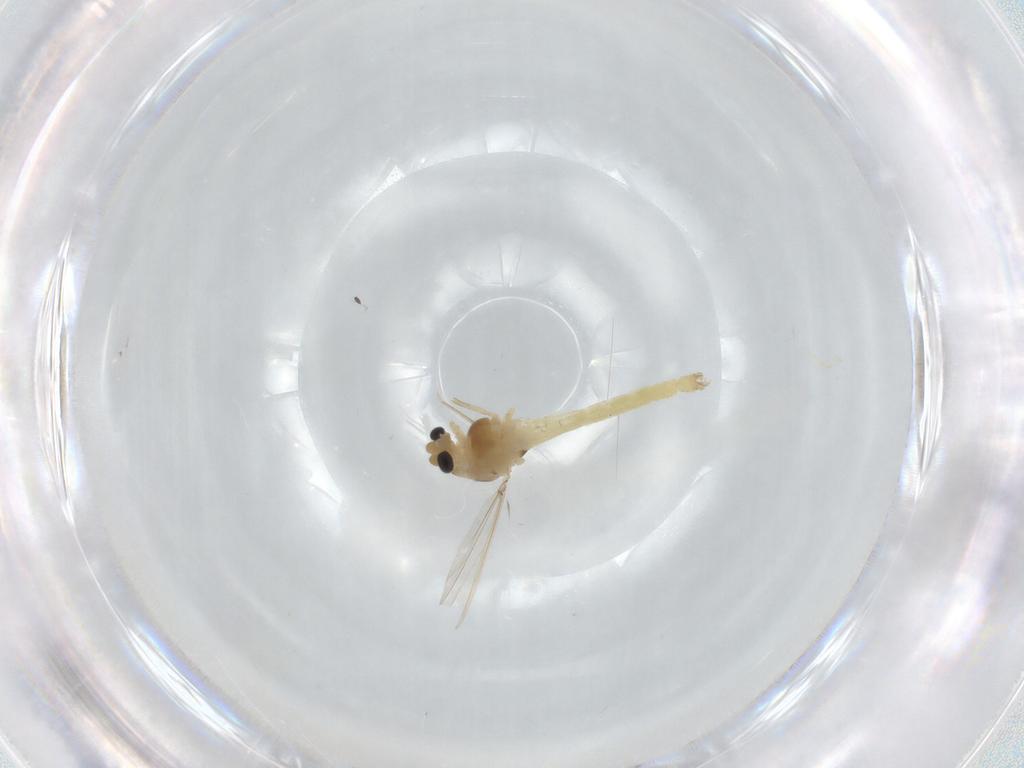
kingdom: Animalia
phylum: Arthropoda
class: Insecta
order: Diptera
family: Chironomidae
